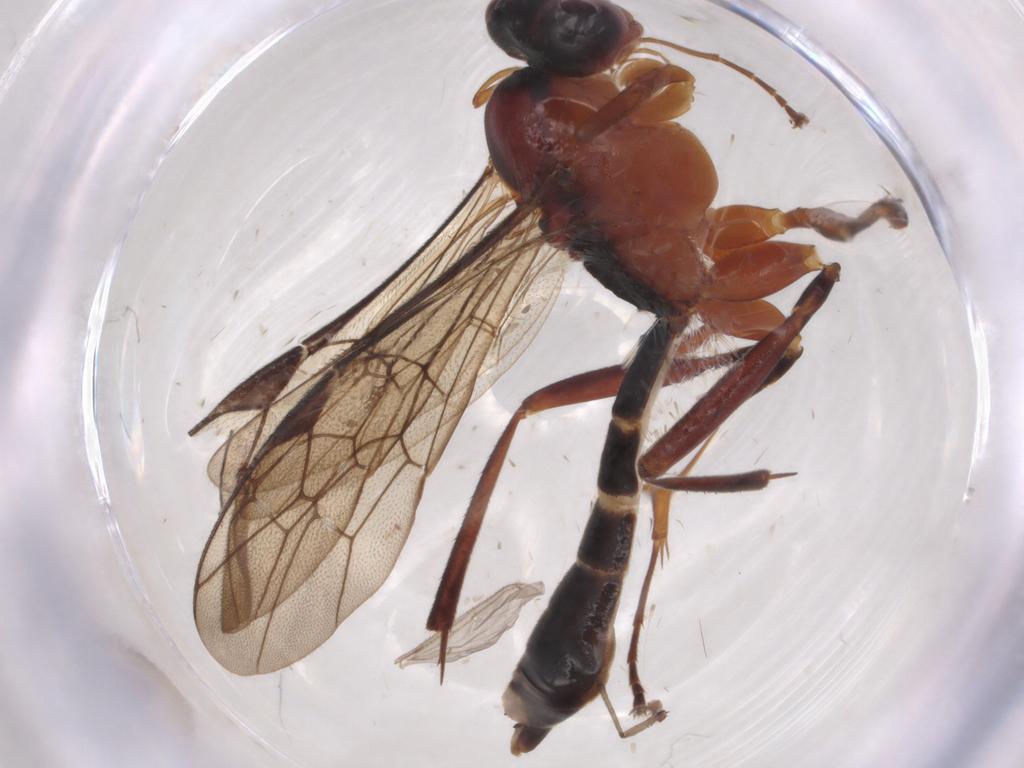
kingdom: Animalia
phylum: Arthropoda
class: Insecta
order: Hymenoptera
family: Ichneumonidae
